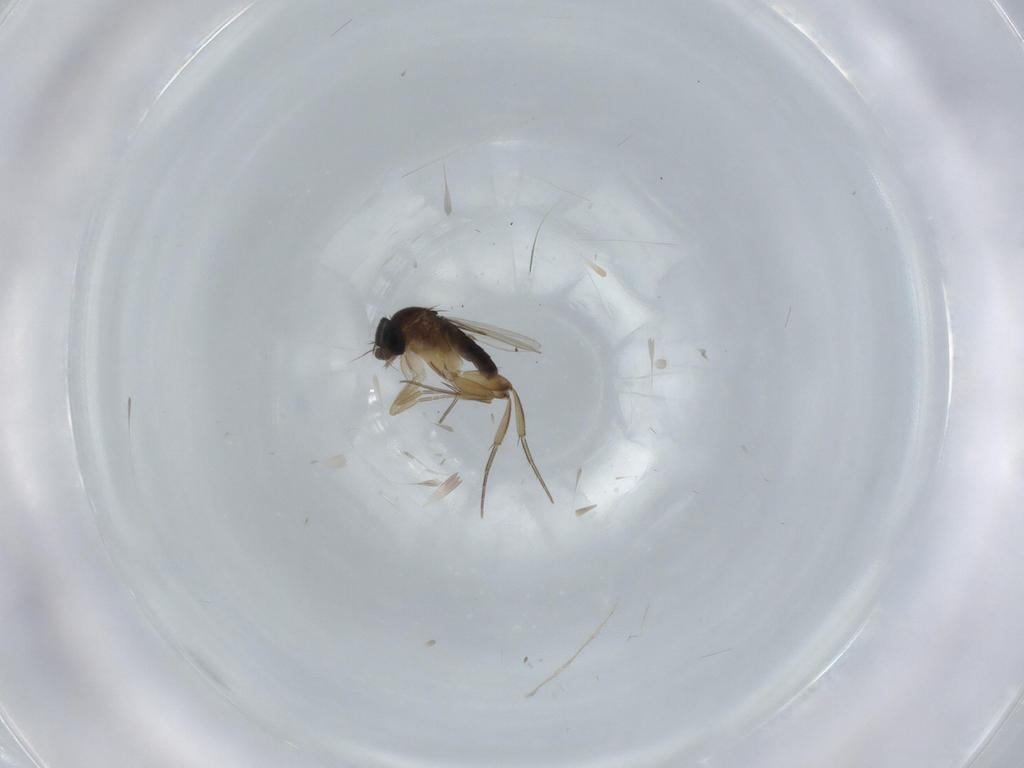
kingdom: Animalia
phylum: Arthropoda
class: Insecta
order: Diptera
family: Phoridae
